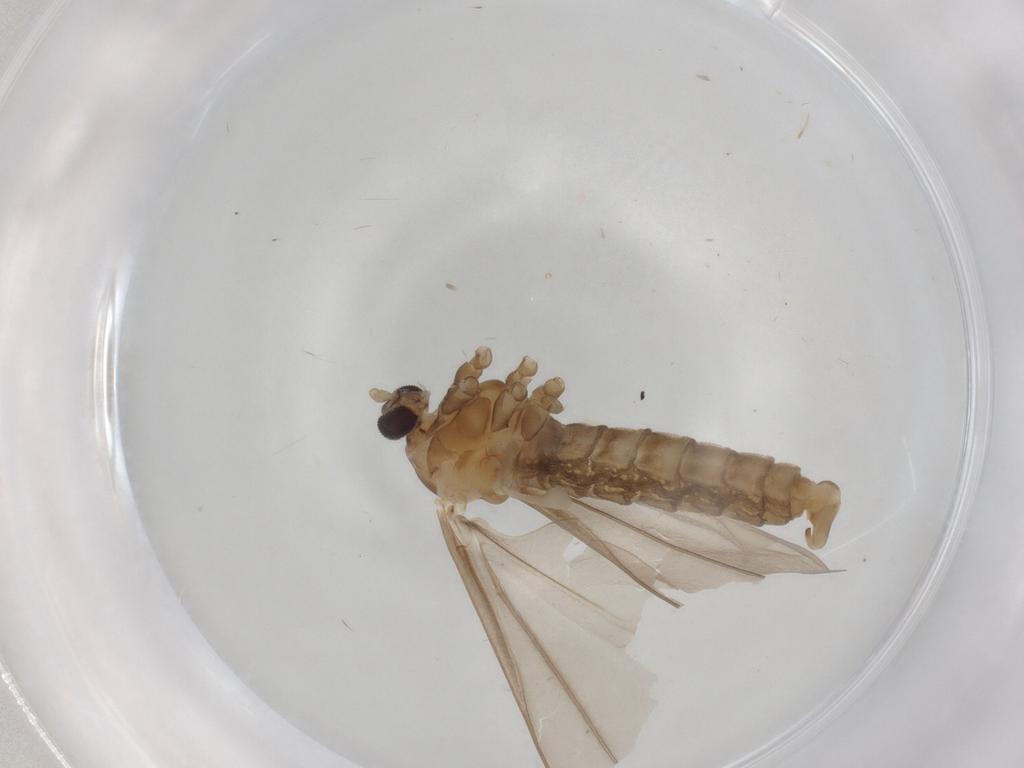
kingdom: Animalia
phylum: Arthropoda
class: Insecta
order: Diptera
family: Cecidomyiidae
